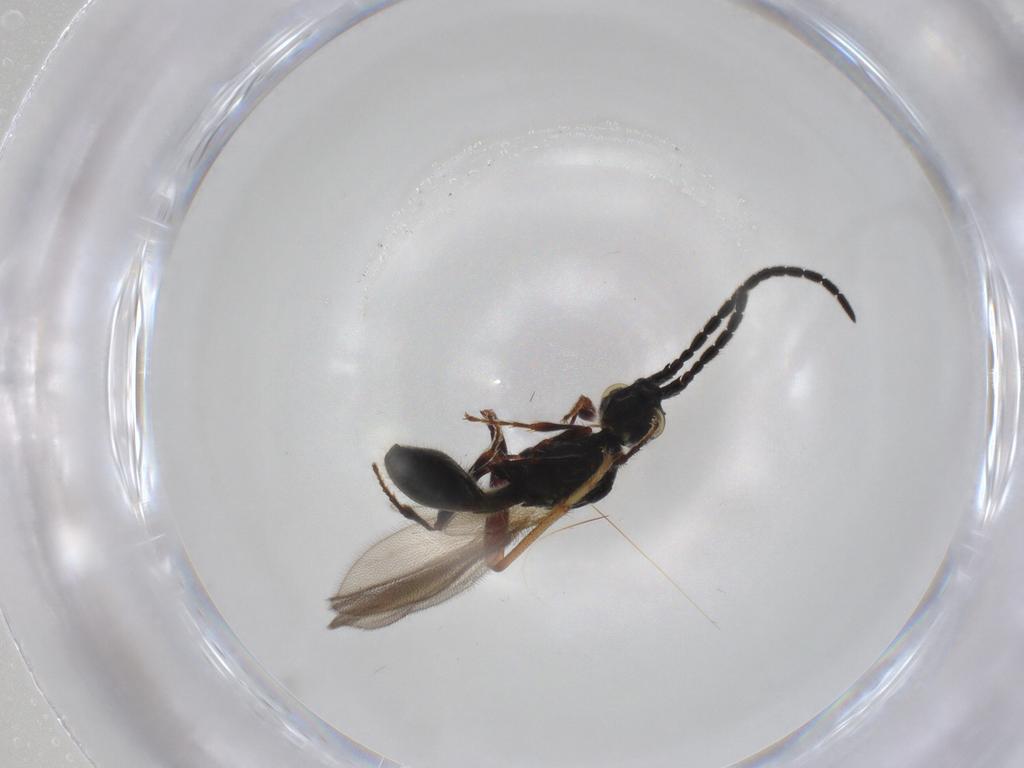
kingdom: Animalia
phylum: Arthropoda
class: Insecta
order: Hymenoptera
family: Diapriidae
